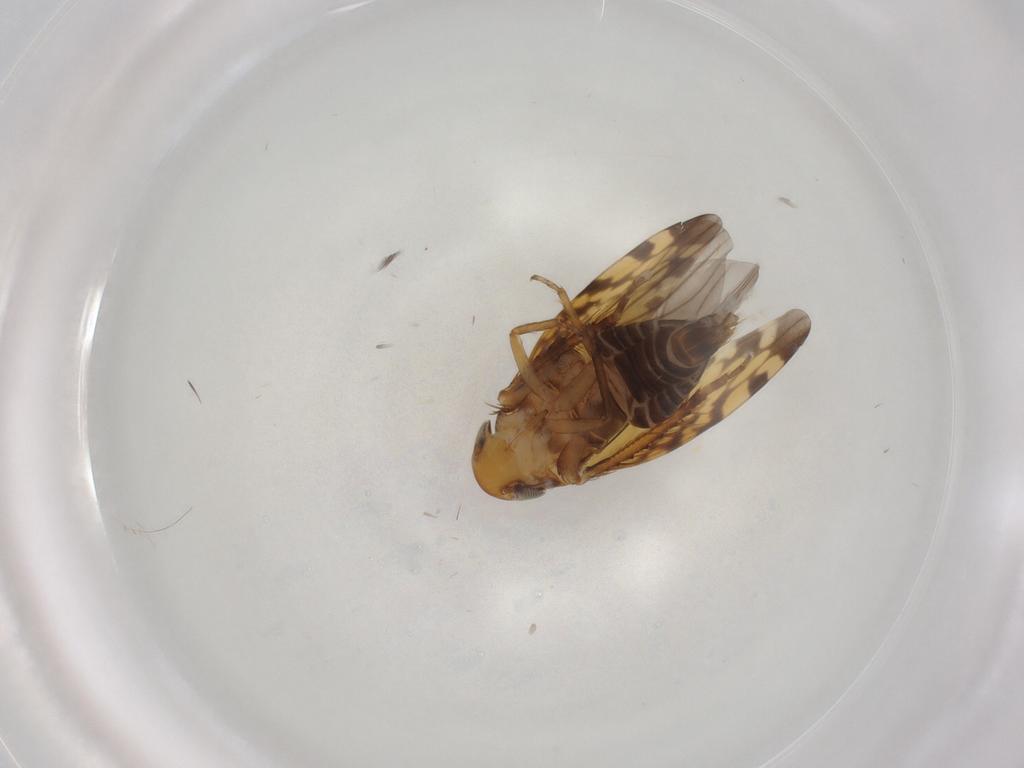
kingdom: Animalia
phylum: Arthropoda
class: Insecta
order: Hemiptera
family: Cicadellidae
